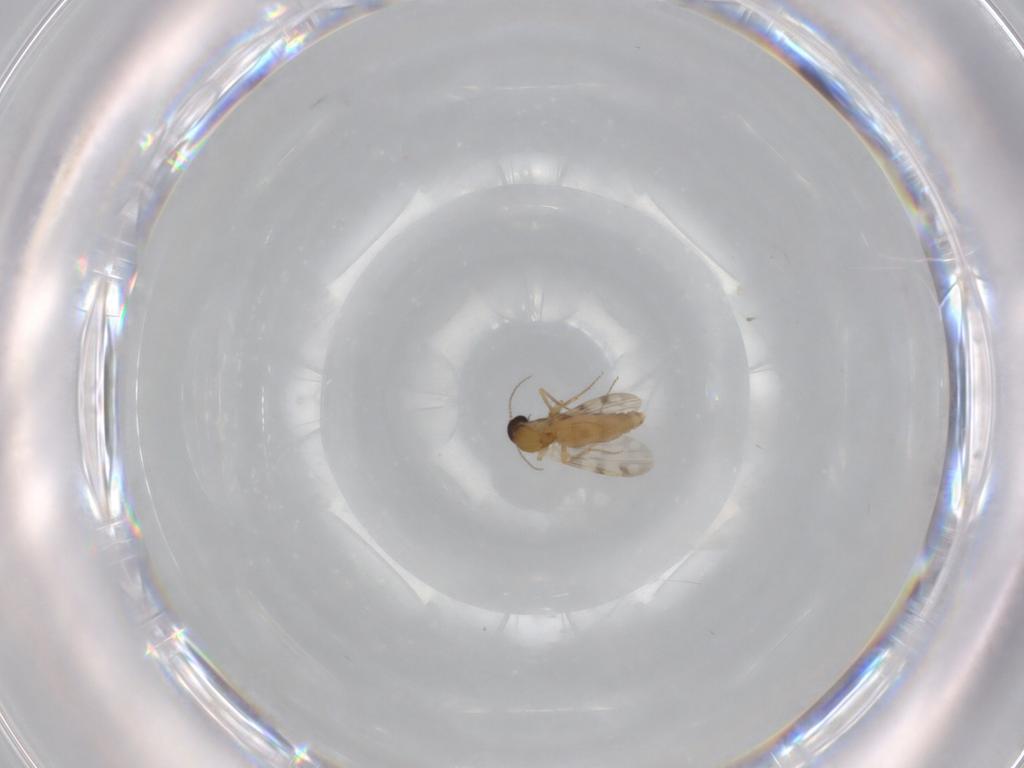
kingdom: Animalia
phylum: Arthropoda
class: Insecta
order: Diptera
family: Ceratopogonidae
